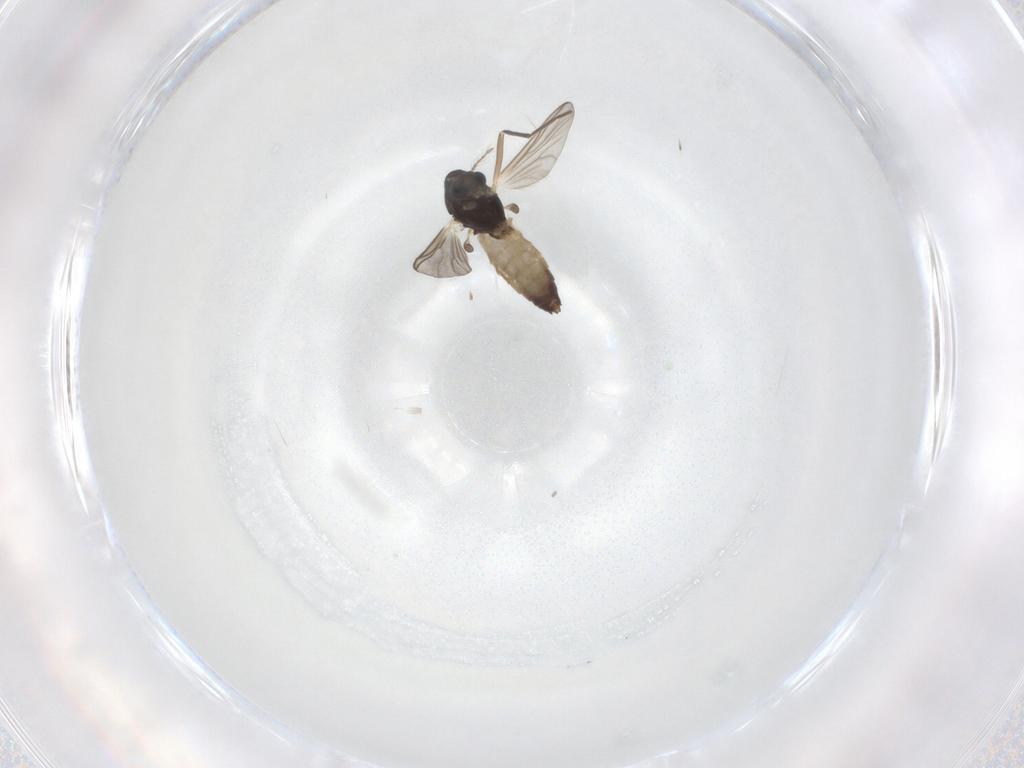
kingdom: Animalia
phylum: Arthropoda
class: Insecta
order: Diptera
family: Chironomidae
